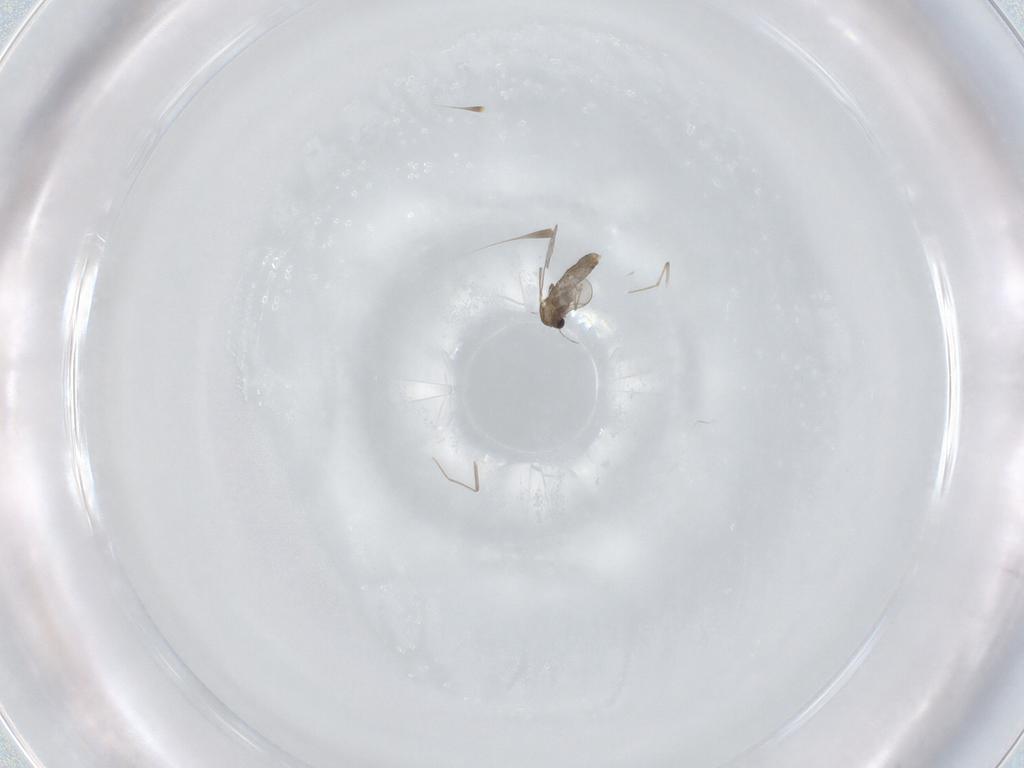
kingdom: Animalia
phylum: Arthropoda
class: Insecta
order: Diptera
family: Chironomidae
